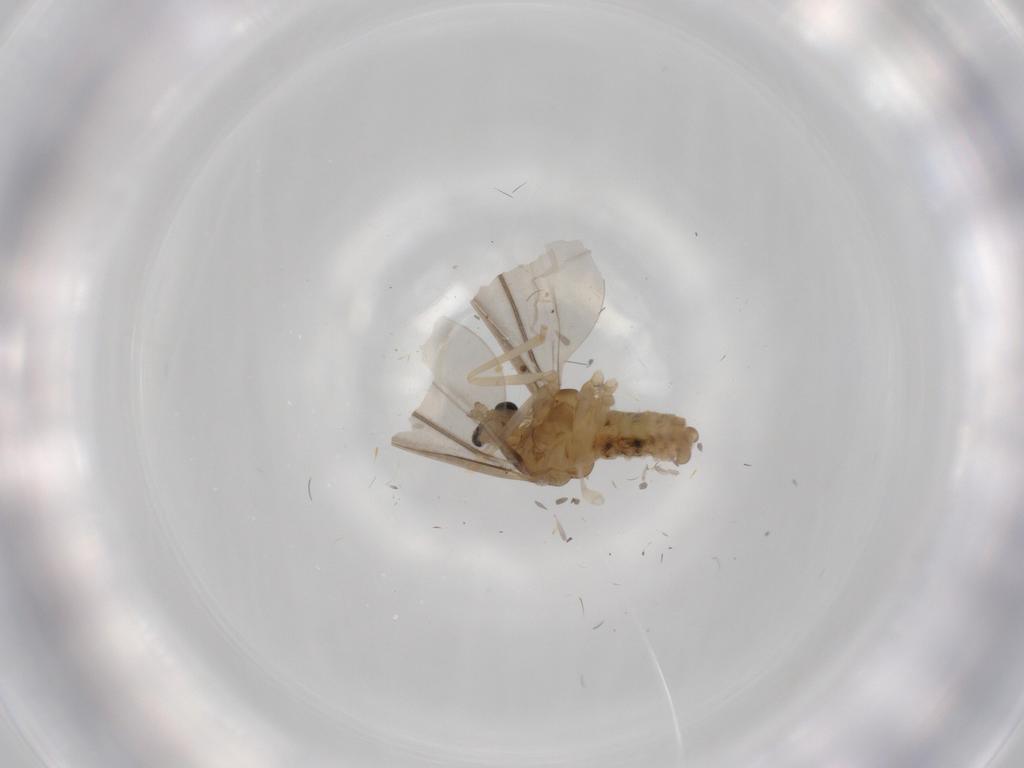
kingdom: Animalia
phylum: Arthropoda
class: Insecta
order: Diptera
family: Cecidomyiidae
